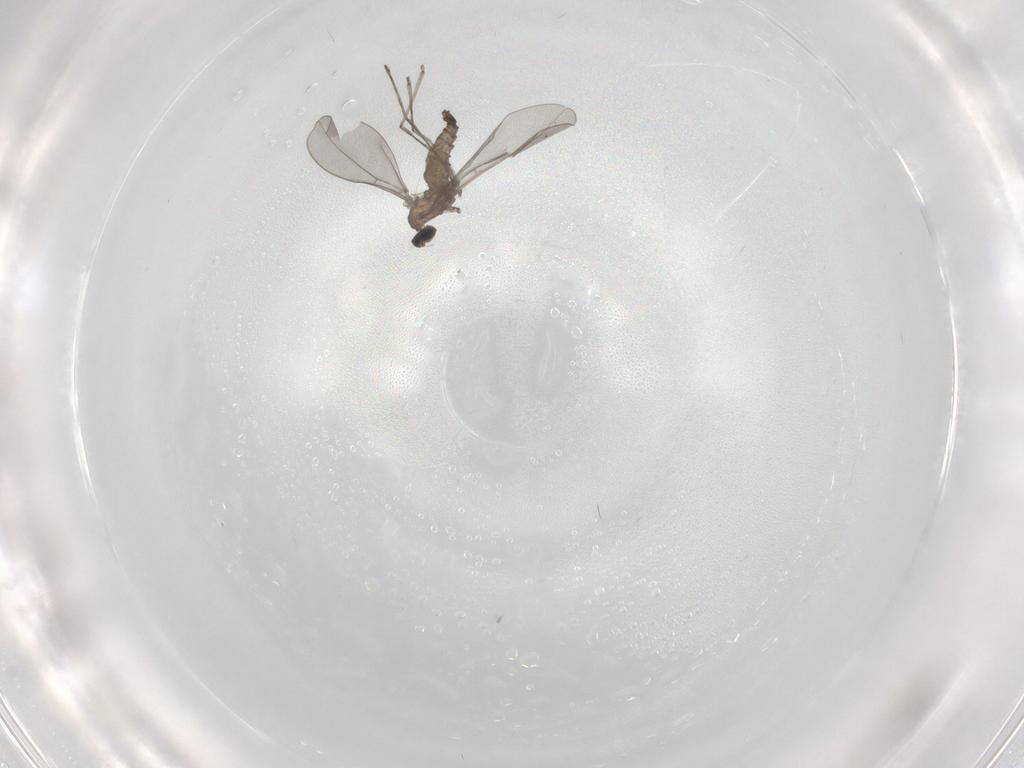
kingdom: Animalia
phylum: Arthropoda
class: Insecta
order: Diptera
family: Cecidomyiidae
